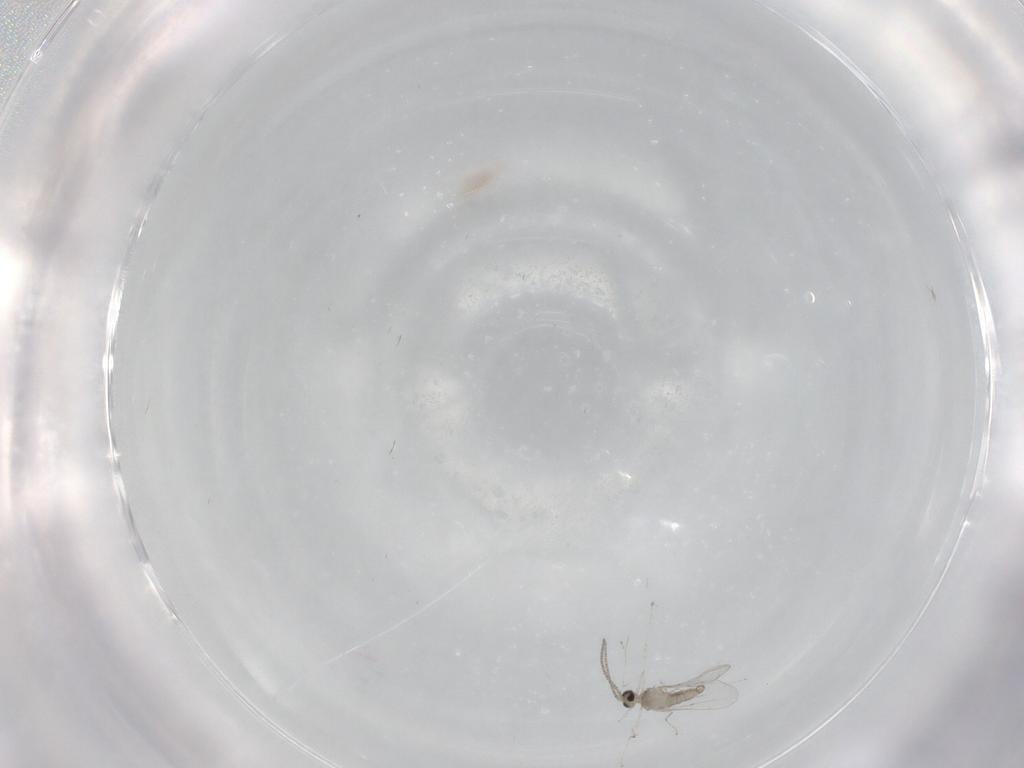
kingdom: Animalia
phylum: Arthropoda
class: Insecta
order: Diptera
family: Cecidomyiidae
